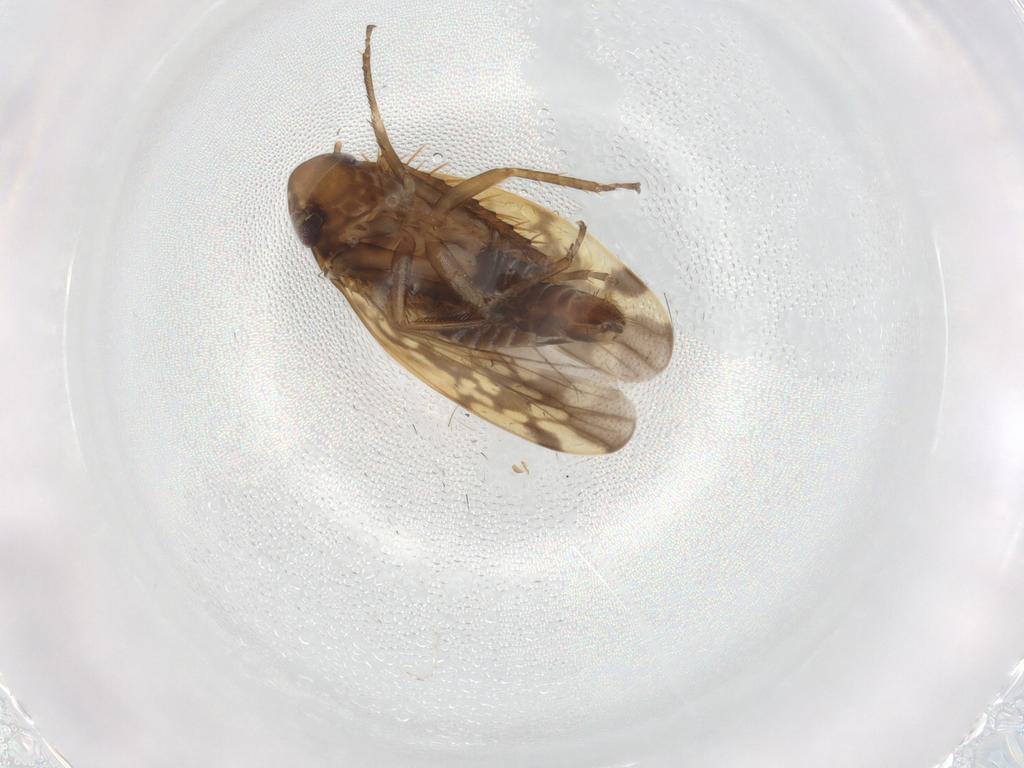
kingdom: Animalia
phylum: Arthropoda
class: Insecta
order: Hemiptera
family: Cicadellidae
